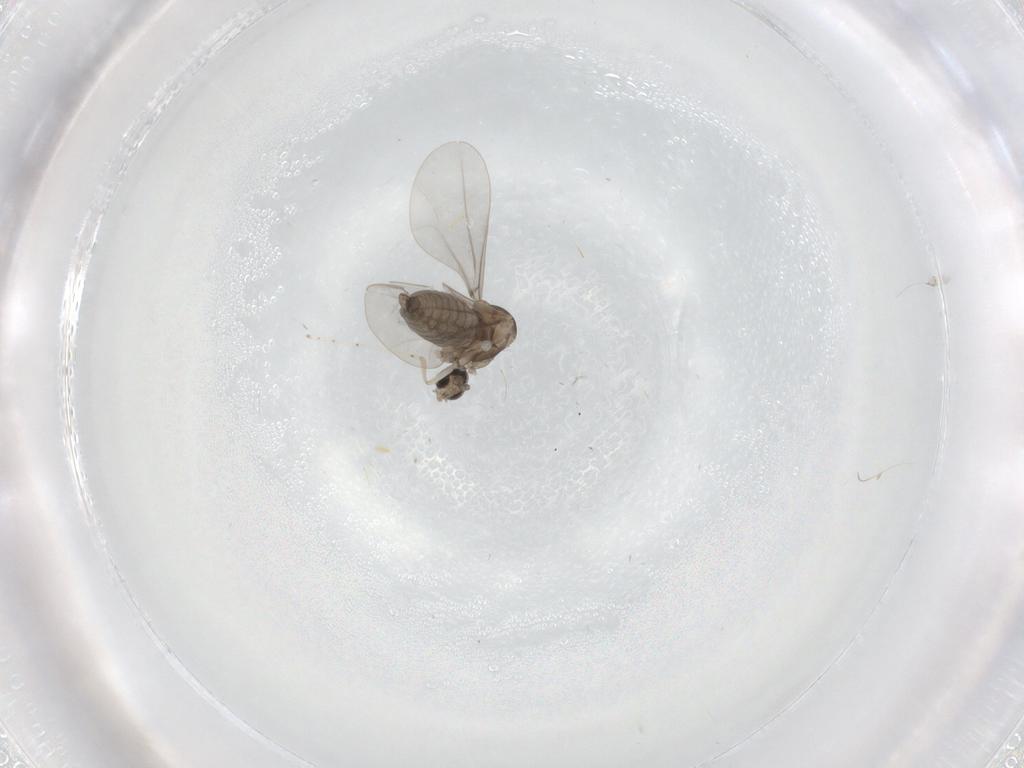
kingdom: Animalia
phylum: Arthropoda
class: Insecta
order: Diptera
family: Cecidomyiidae
